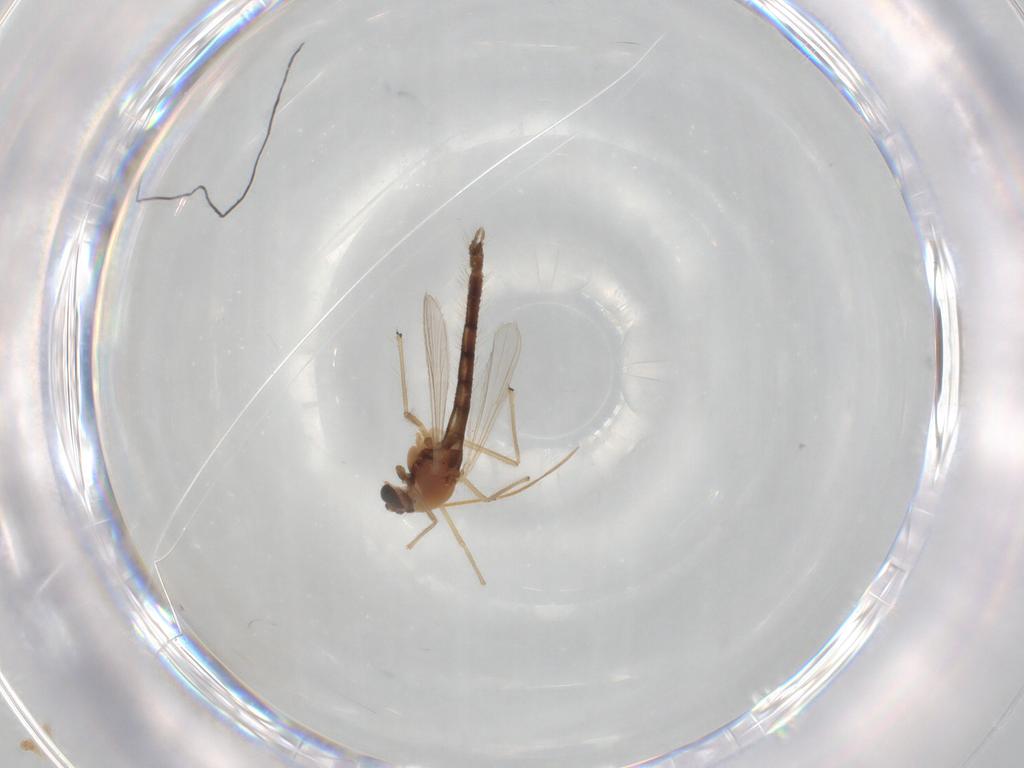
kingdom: Animalia
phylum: Arthropoda
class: Insecta
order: Diptera
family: Chironomidae
